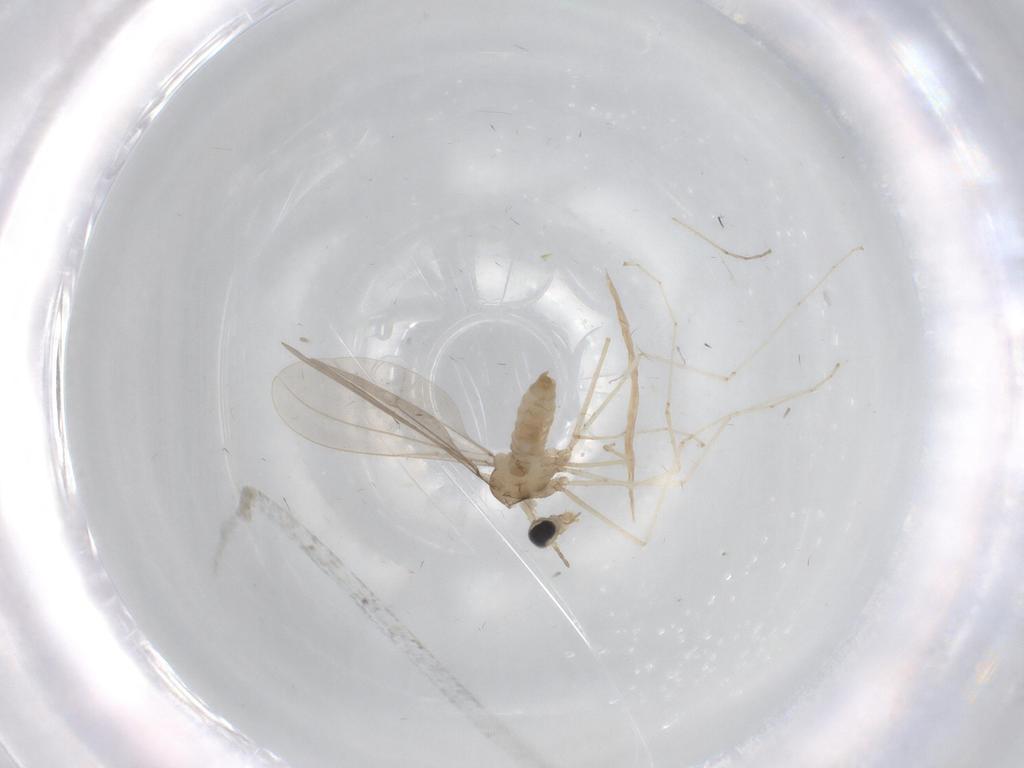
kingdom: Animalia
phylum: Arthropoda
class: Insecta
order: Diptera
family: Cecidomyiidae
